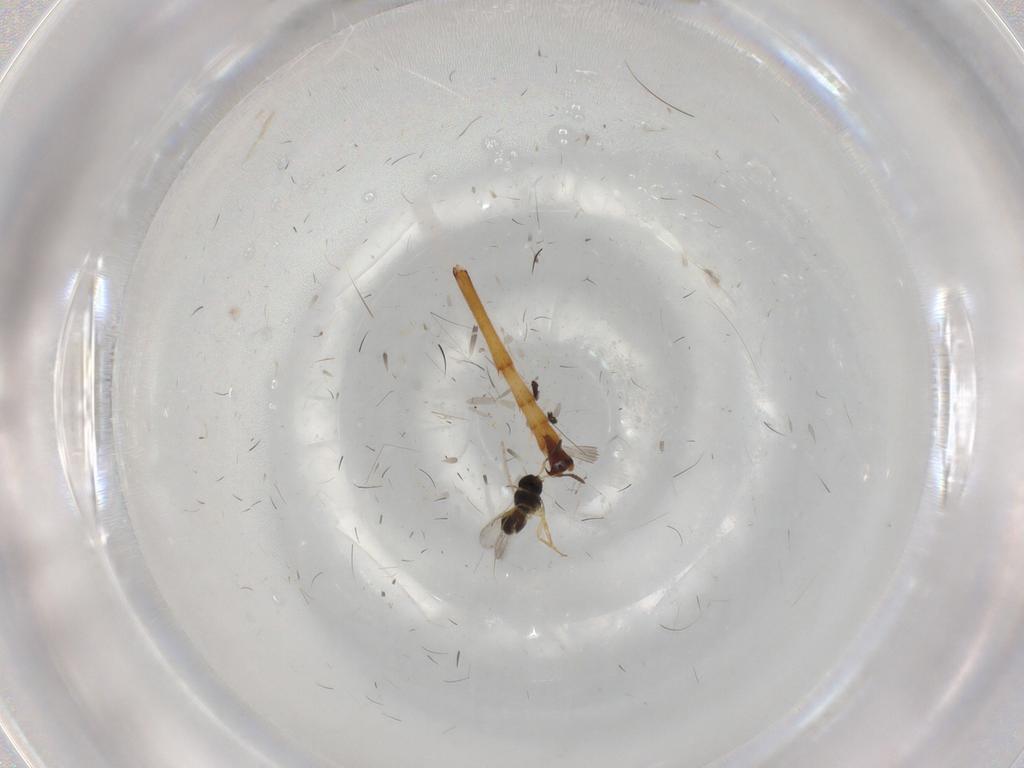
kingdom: Animalia
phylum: Arthropoda
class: Insecta
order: Hymenoptera
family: Ichneumonidae
